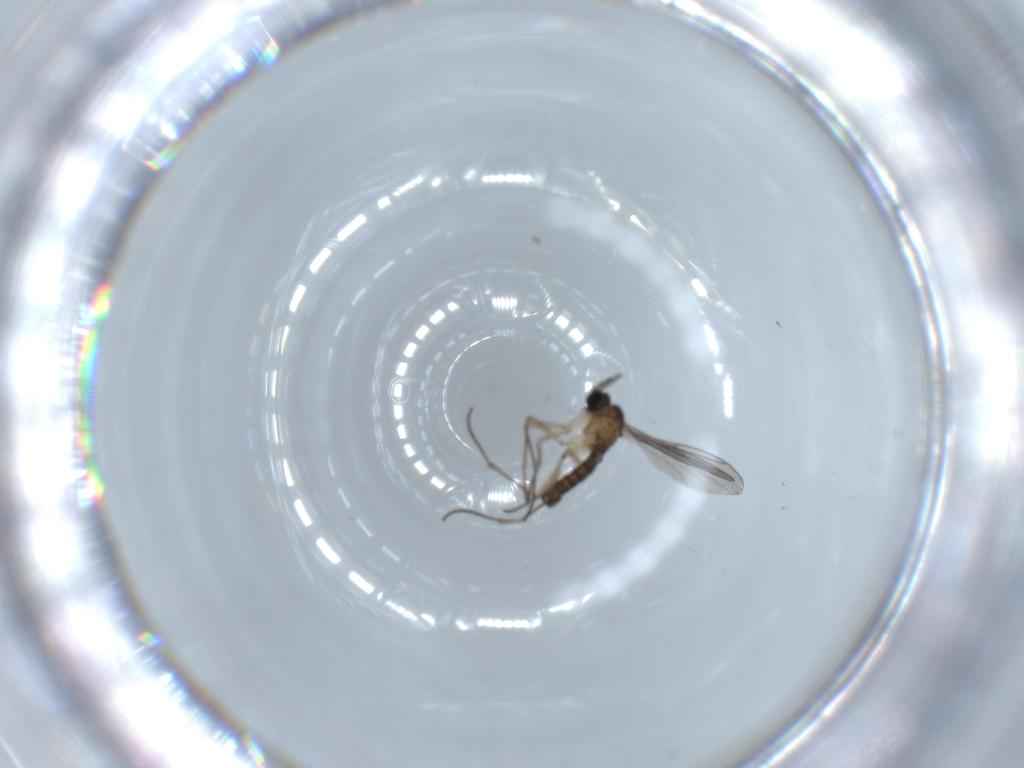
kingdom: Animalia
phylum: Arthropoda
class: Insecta
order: Diptera
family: Sciaridae
